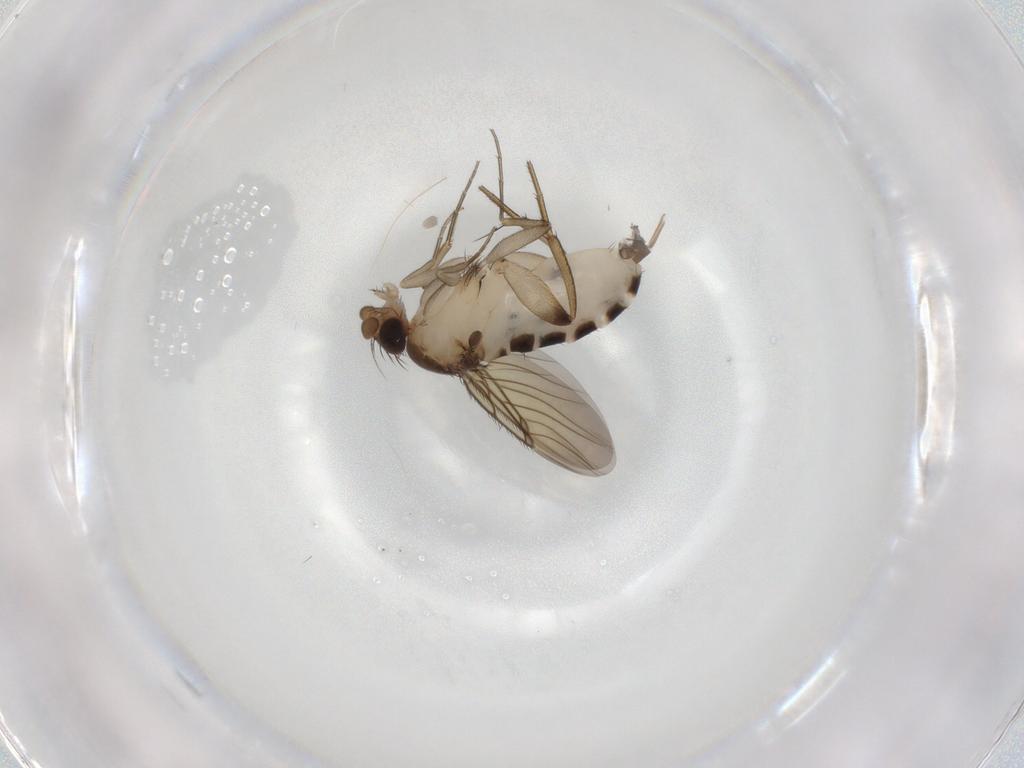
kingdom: Animalia
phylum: Arthropoda
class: Insecta
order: Diptera
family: Phoridae
